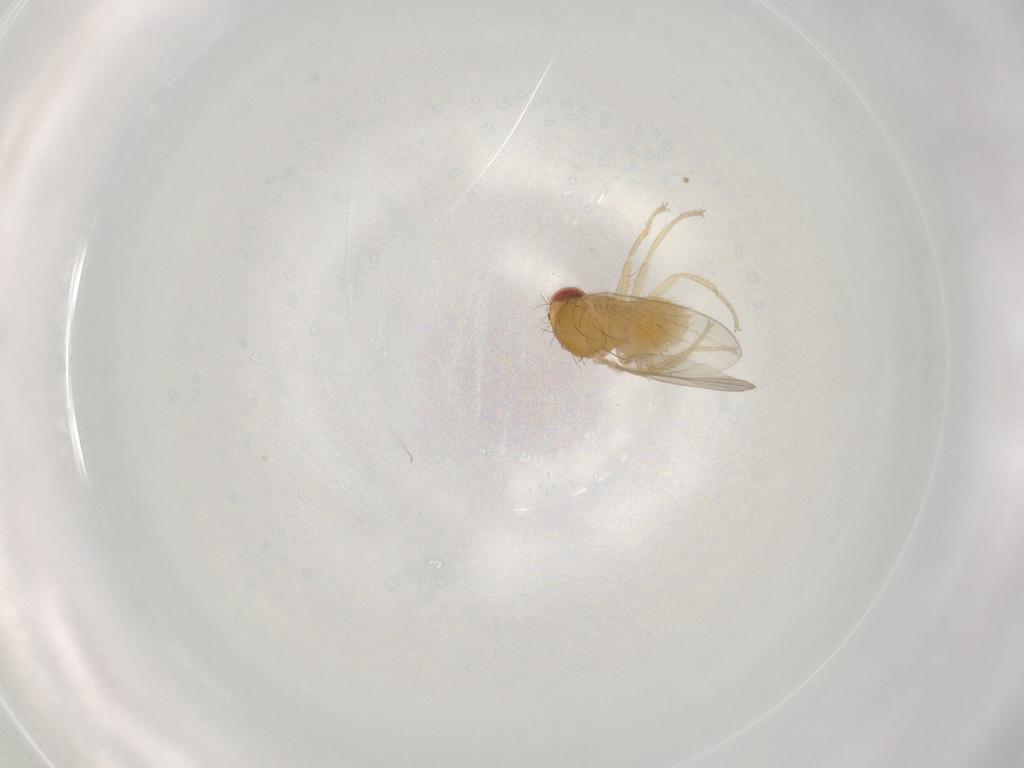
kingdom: Animalia
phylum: Arthropoda
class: Insecta
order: Diptera
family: Drosophilidae
